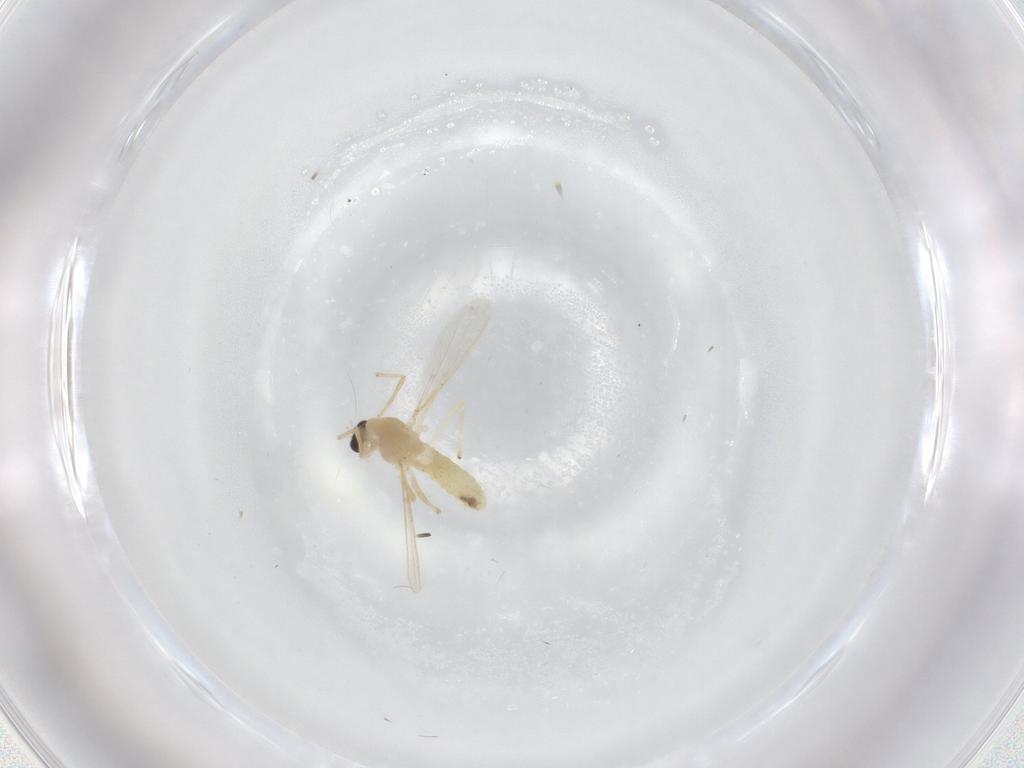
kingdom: Animalia
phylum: Arthropoda
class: Insecta
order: Diptera
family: Chironomidae
